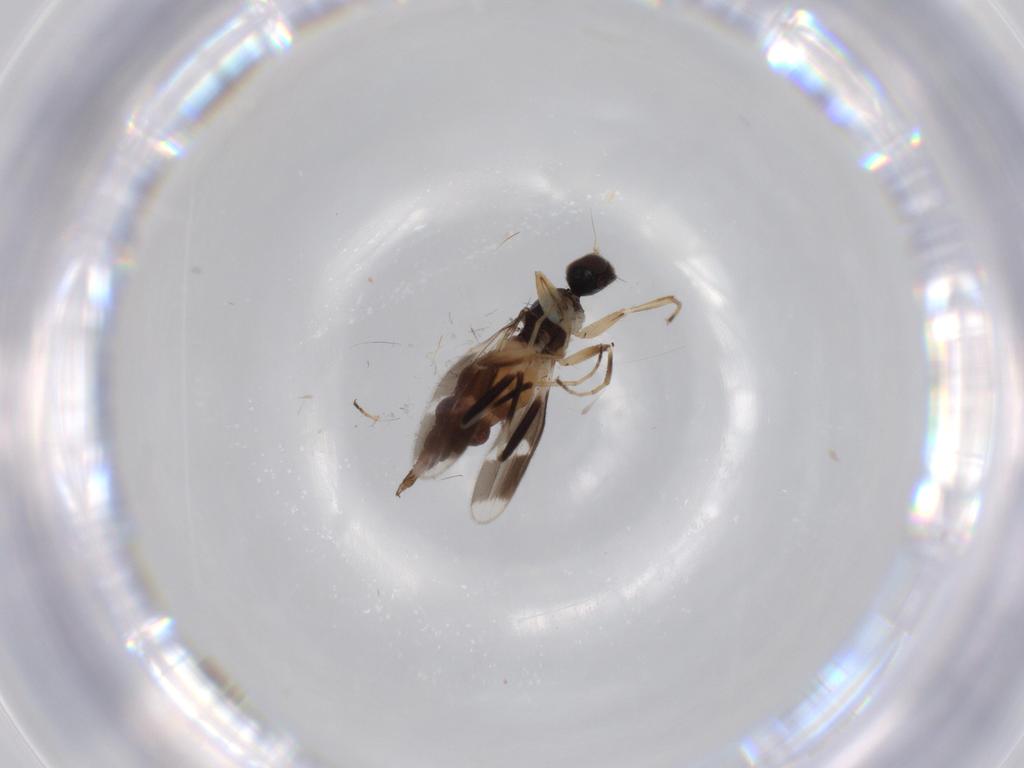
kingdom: Animalia
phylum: Arthropoda
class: Insecta
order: Diptera
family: Hybotidae
